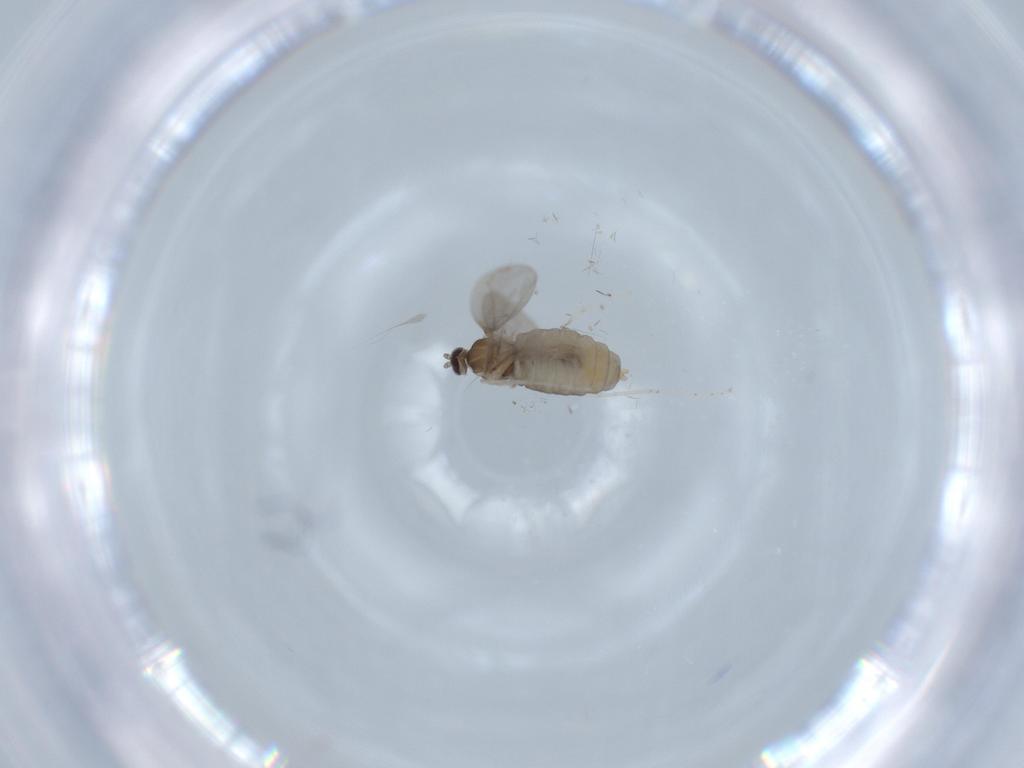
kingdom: Animalia
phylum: Arthropoda
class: Insecta
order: Diptera
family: Cecidomyiidae
